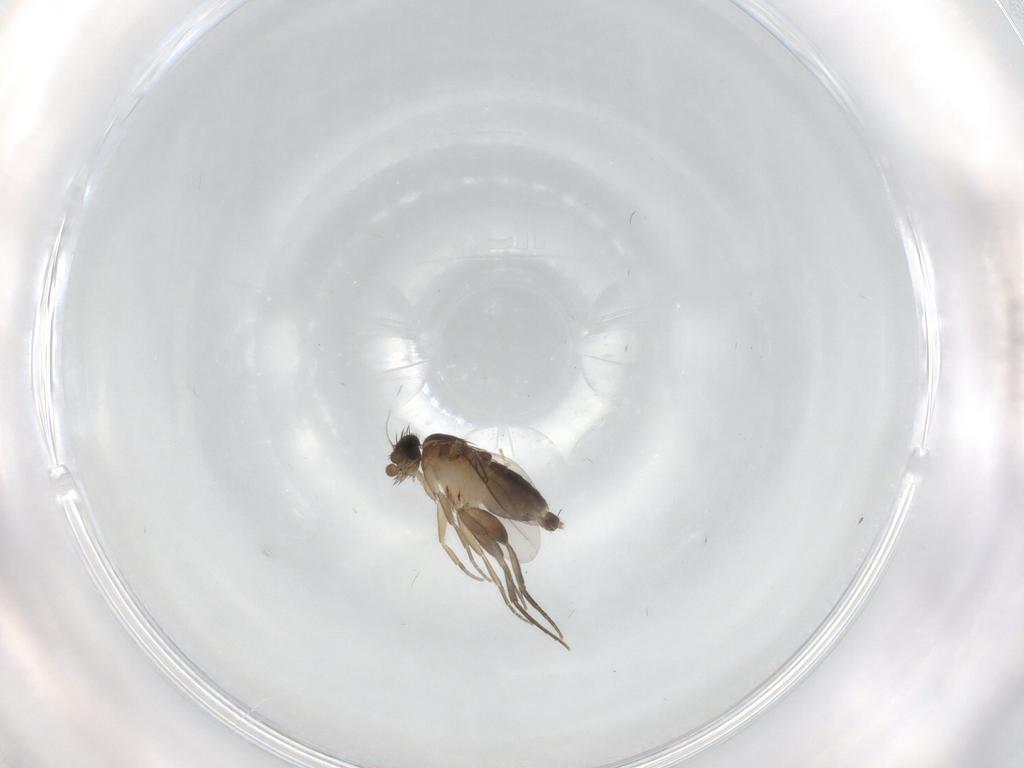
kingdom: Animalia
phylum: Arthropoda
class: Insecta
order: Diptera
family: Phoridae
